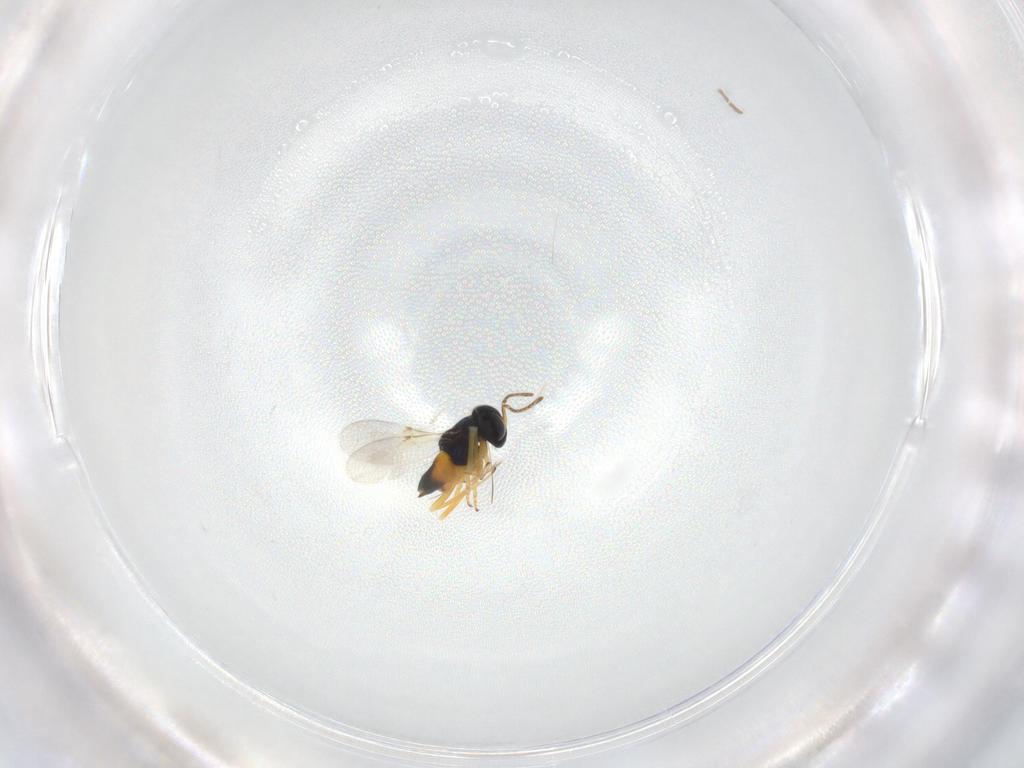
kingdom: Animalia
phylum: Arthropoda
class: Insecta
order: Hymenoptera
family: Encyrtidae
